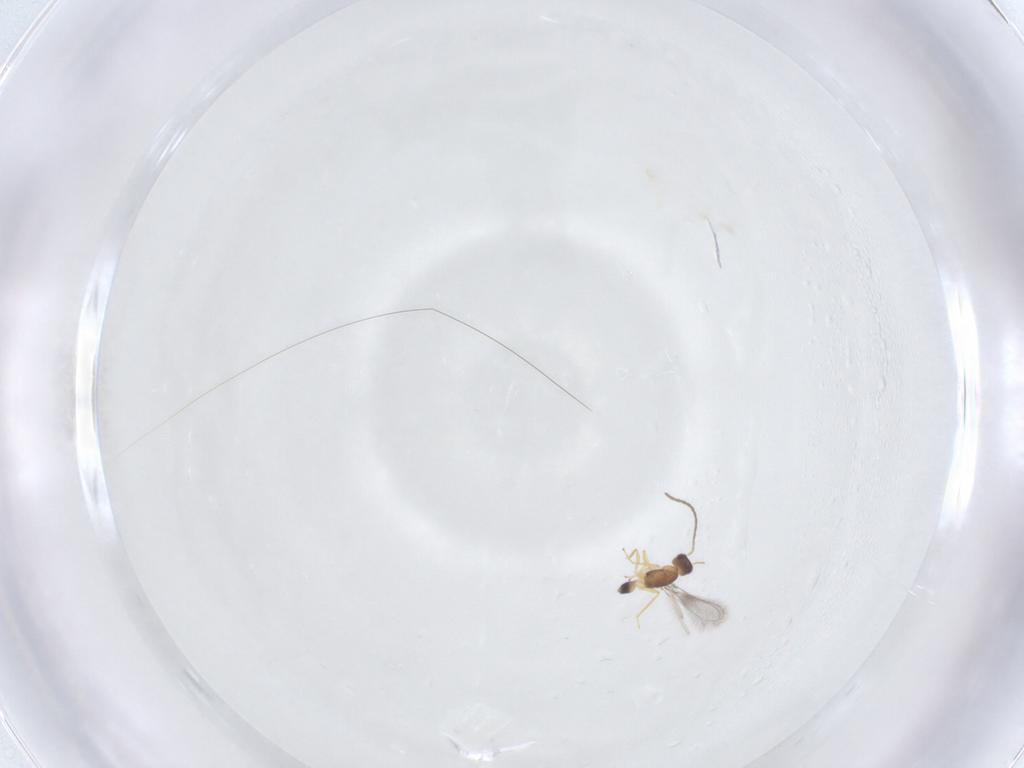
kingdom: Animalia
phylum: Arthropoda
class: Insecta
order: Hymenoptera
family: Mymaridae
